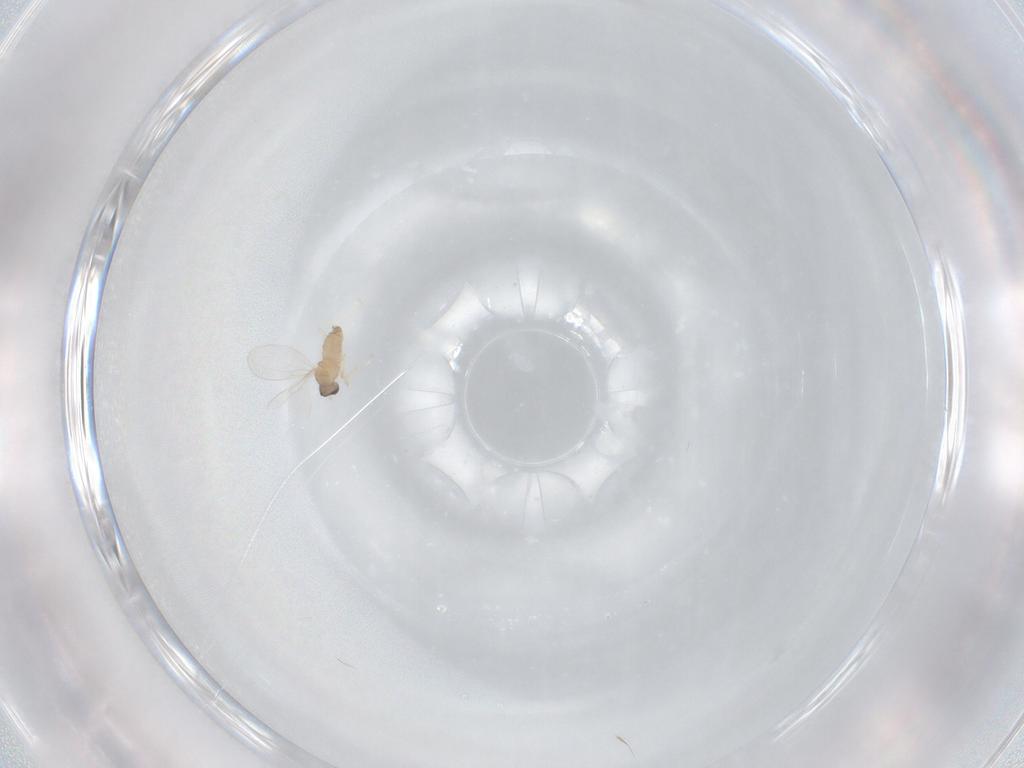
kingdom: Animalia
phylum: Arthropoda
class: Insecta
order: Diptera
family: Cecidomyiidae
